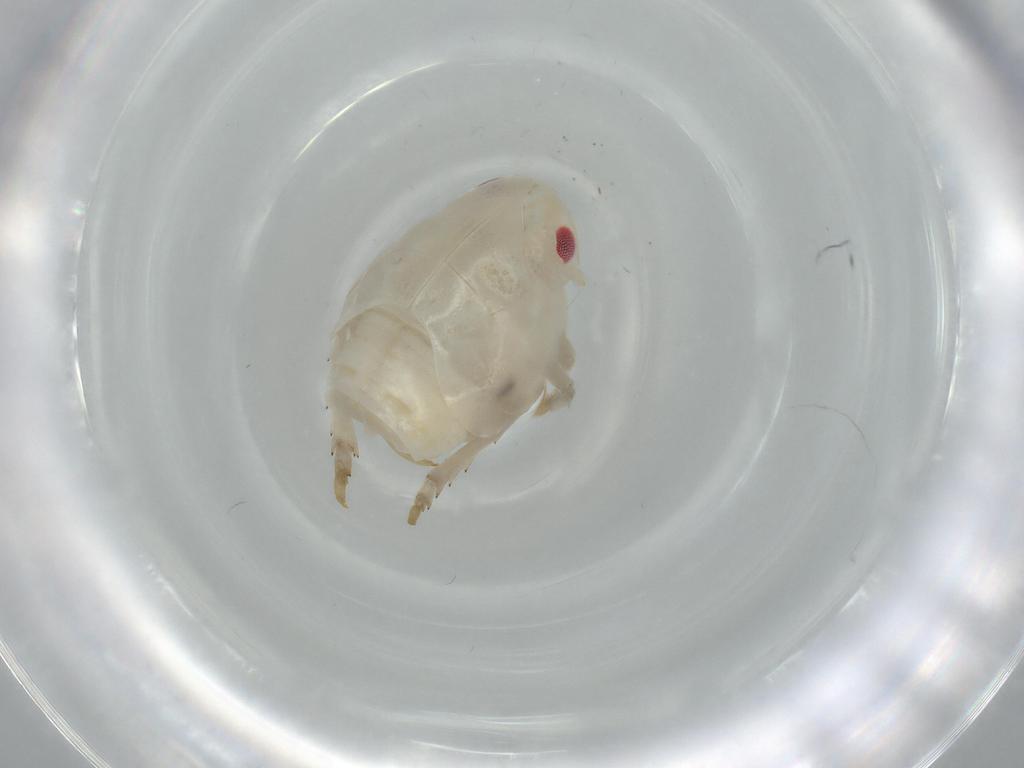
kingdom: Animalia
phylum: Arthropoda
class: Insecta
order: Hemiptera
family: Flatidae
